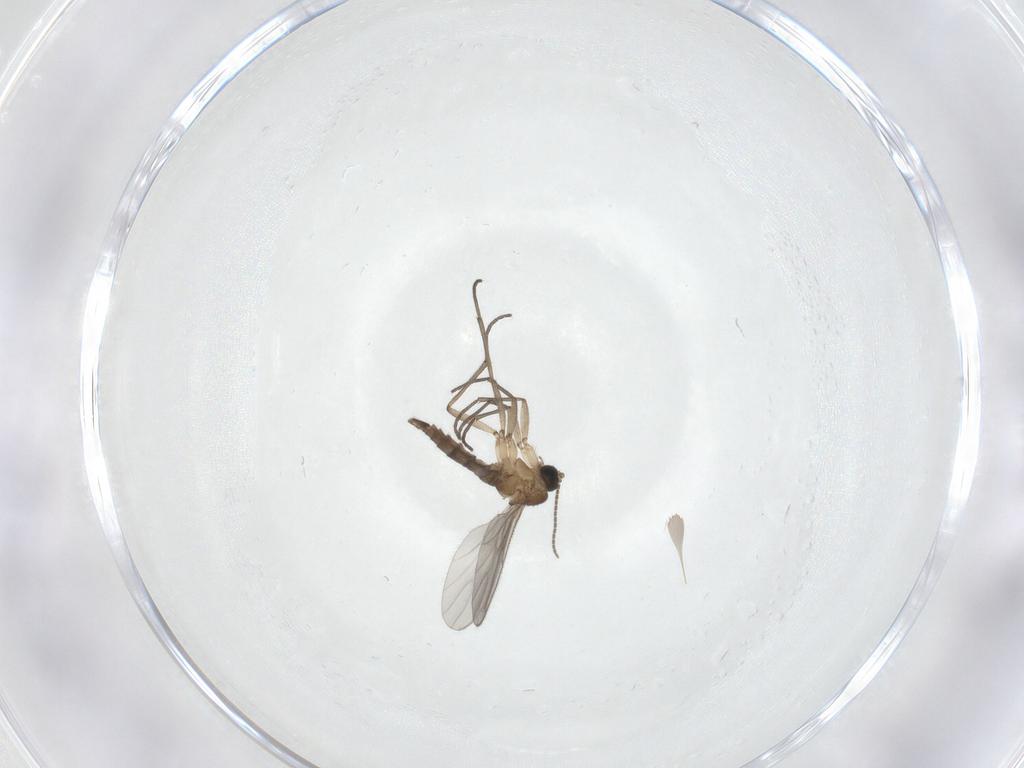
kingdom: Animalia
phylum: Arthropoda
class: Insecta
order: Diptera
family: Sciaridae
